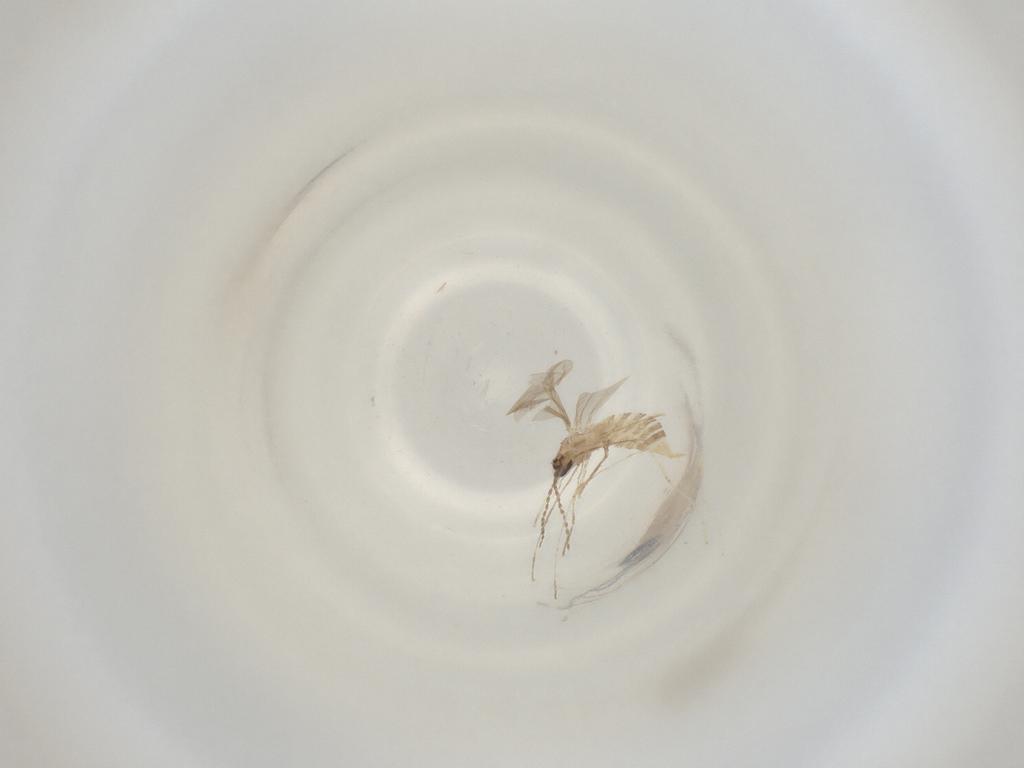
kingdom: Animalia
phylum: Arthropoda
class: Insecta
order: Diptera
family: Cecidomyiidae
